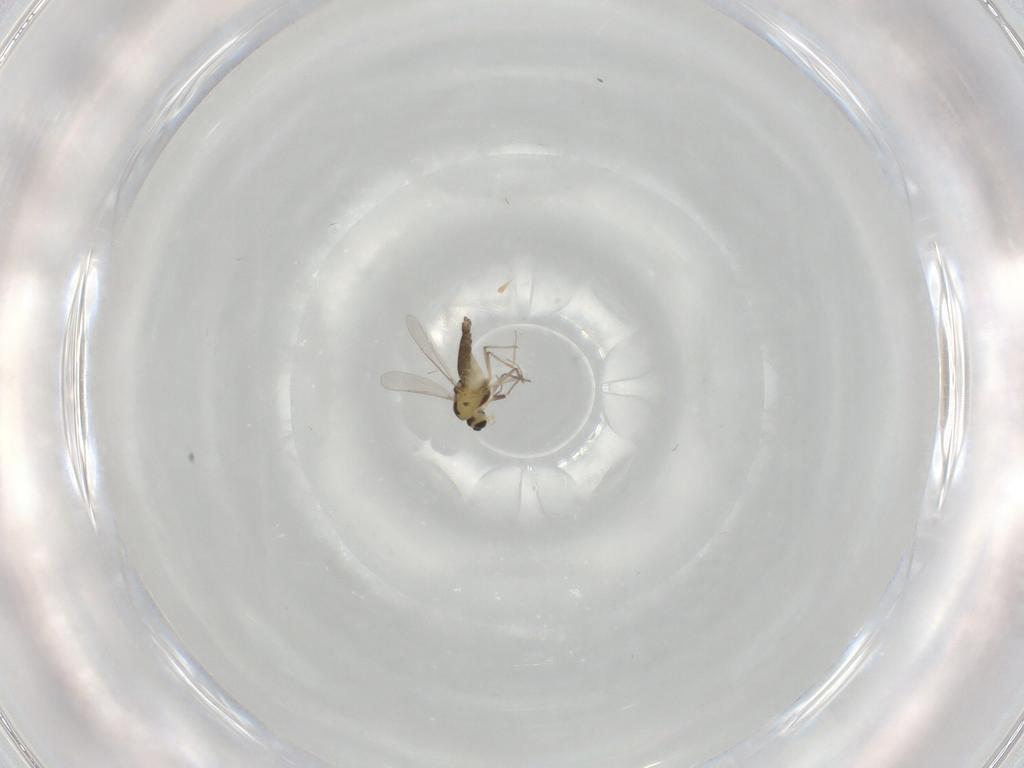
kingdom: Animalia
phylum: Arthropoda
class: Insecta
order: Diptera
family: Chironomidae
